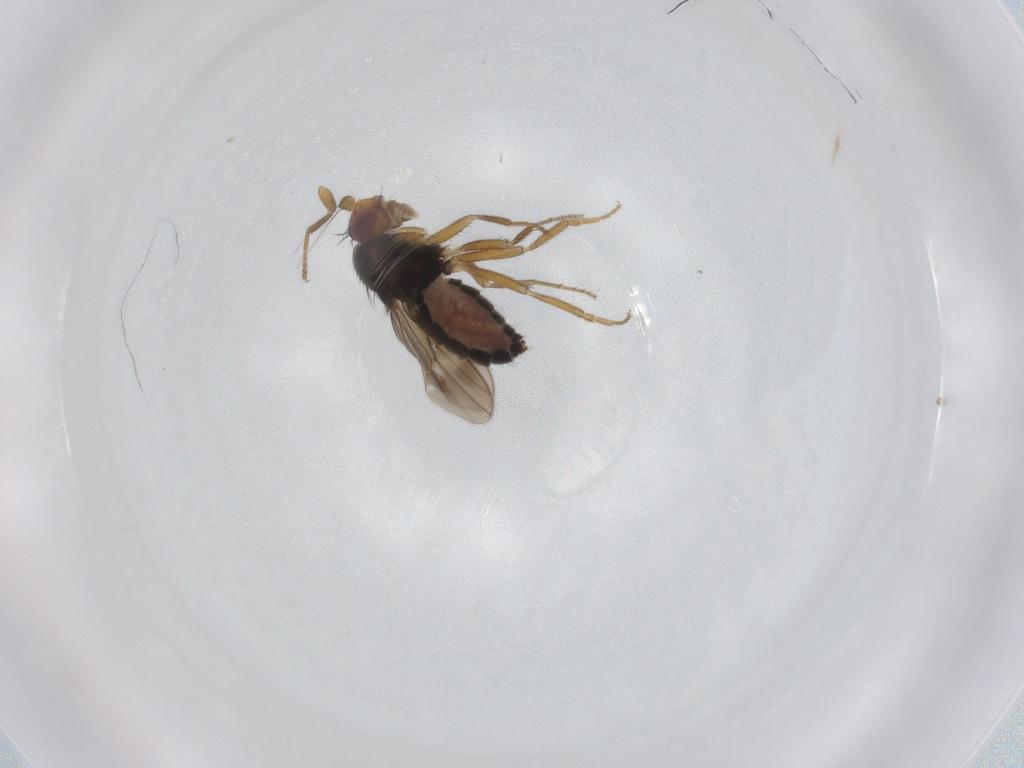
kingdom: Animalia
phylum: Arthropoda
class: Insecta
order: Diptera
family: Sphaeroceridae
